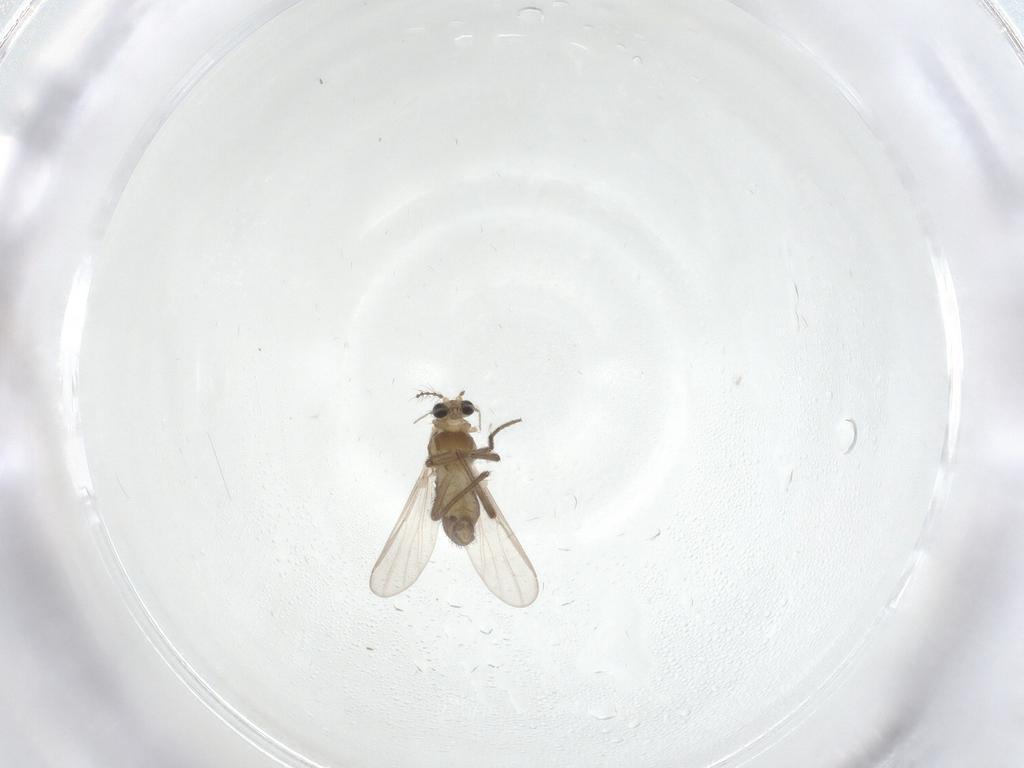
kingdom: Animalia
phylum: Arthropoda
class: Insecta
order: Diptera
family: Chironomidae
